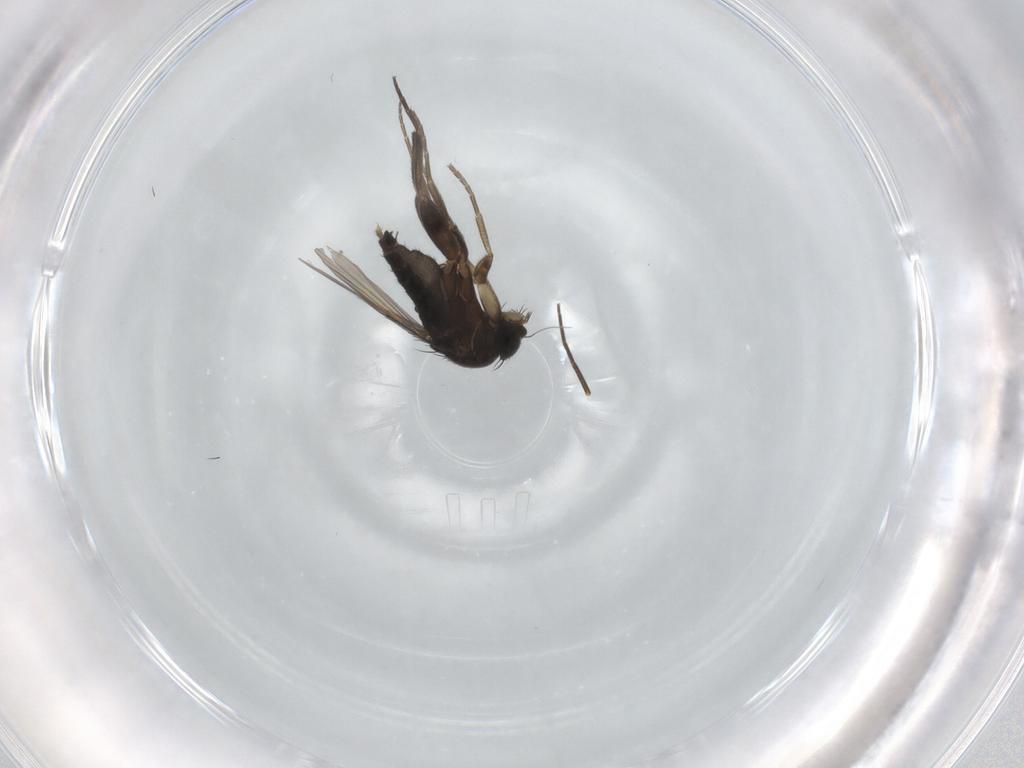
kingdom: Animalia
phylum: Arthropoda
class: Insecta
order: Diptera
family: Phoridae
